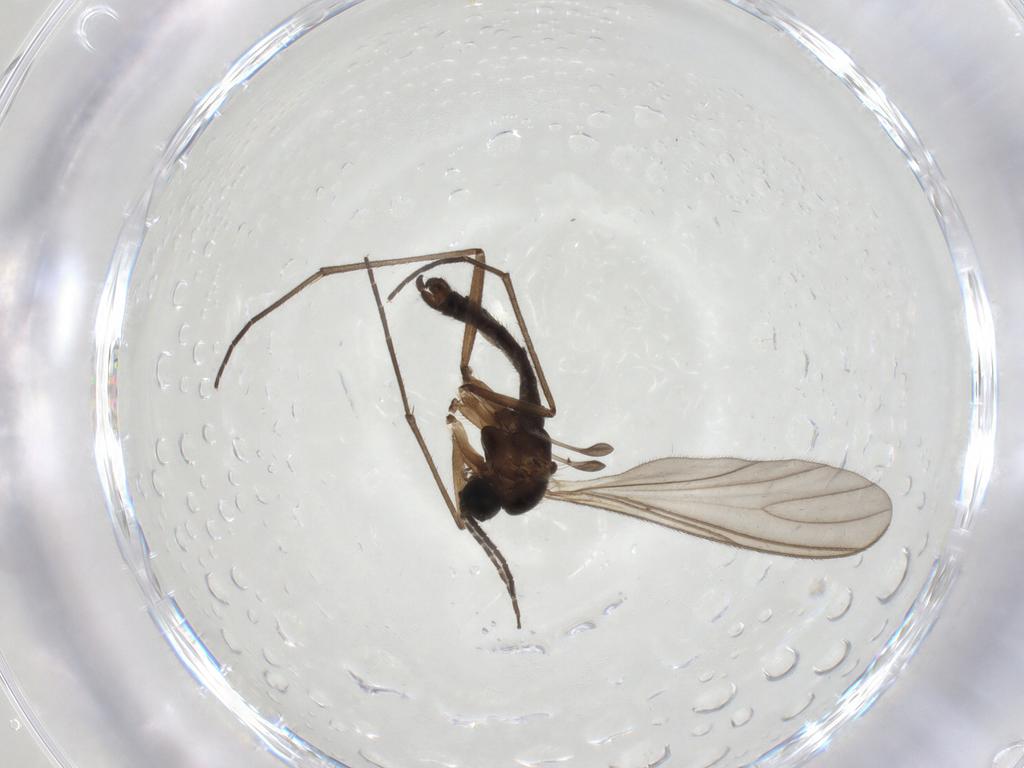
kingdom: Animalia
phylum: Arthropoda
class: Insecta
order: Diptera
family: Sciaridae
